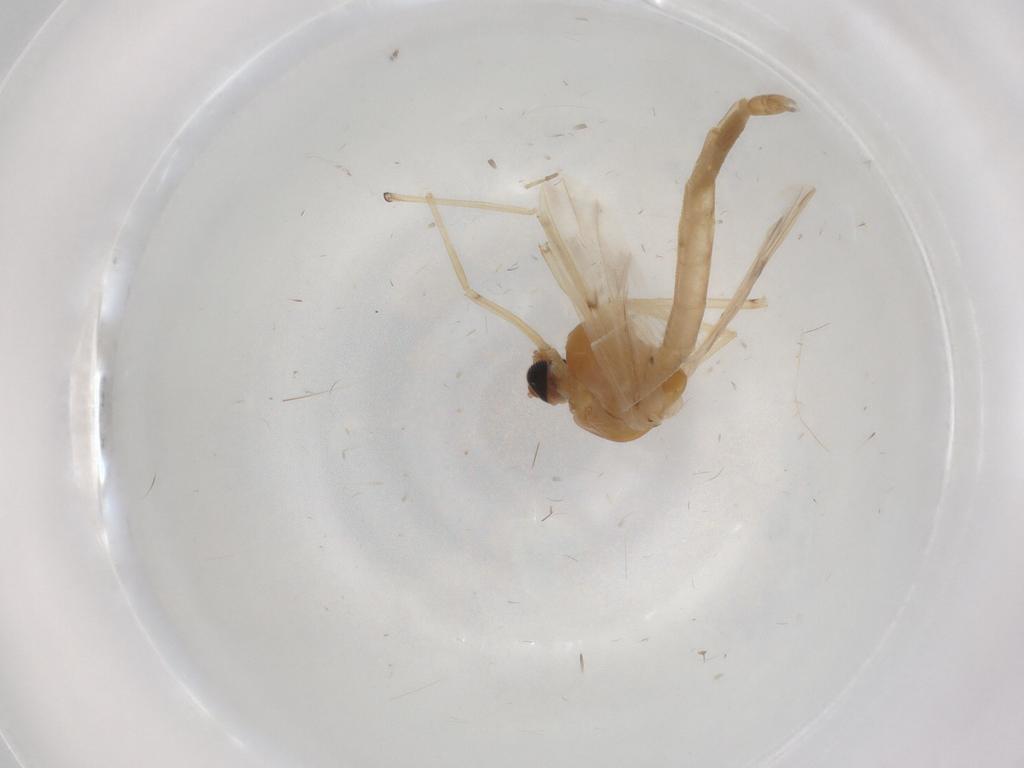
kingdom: Animalia
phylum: Arthropoda
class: Insecta
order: Diptera
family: Chironomidae
